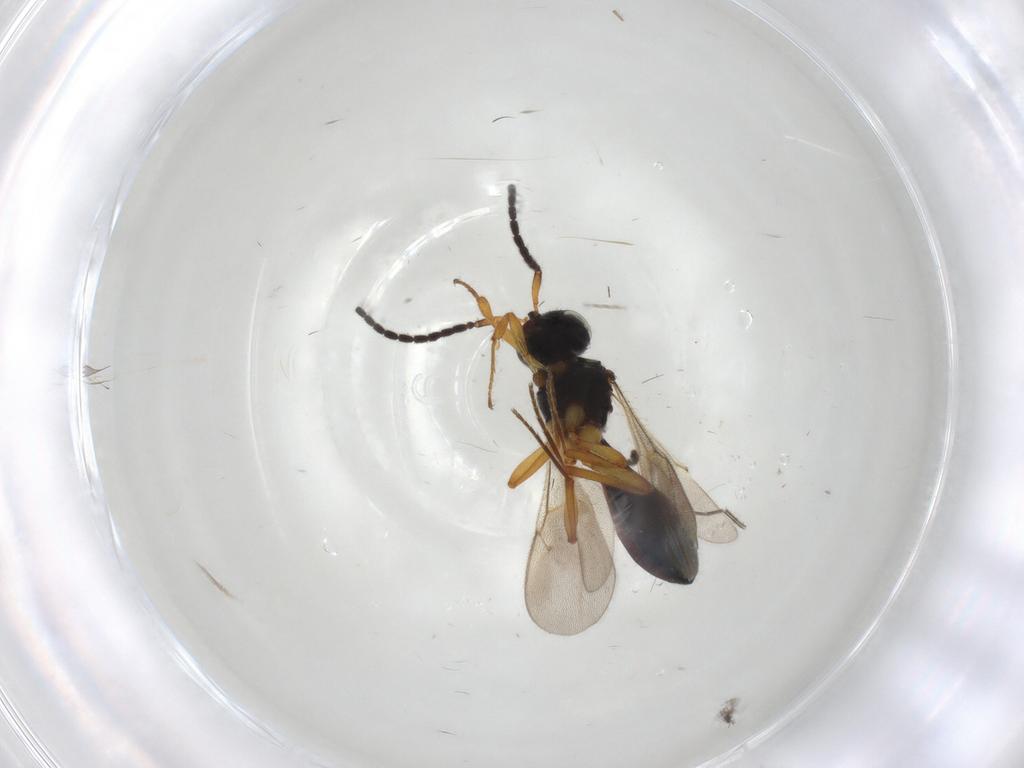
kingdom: Animalia
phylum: Arthropoda
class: Insecta
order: Hymenoptera
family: Scelionidae
